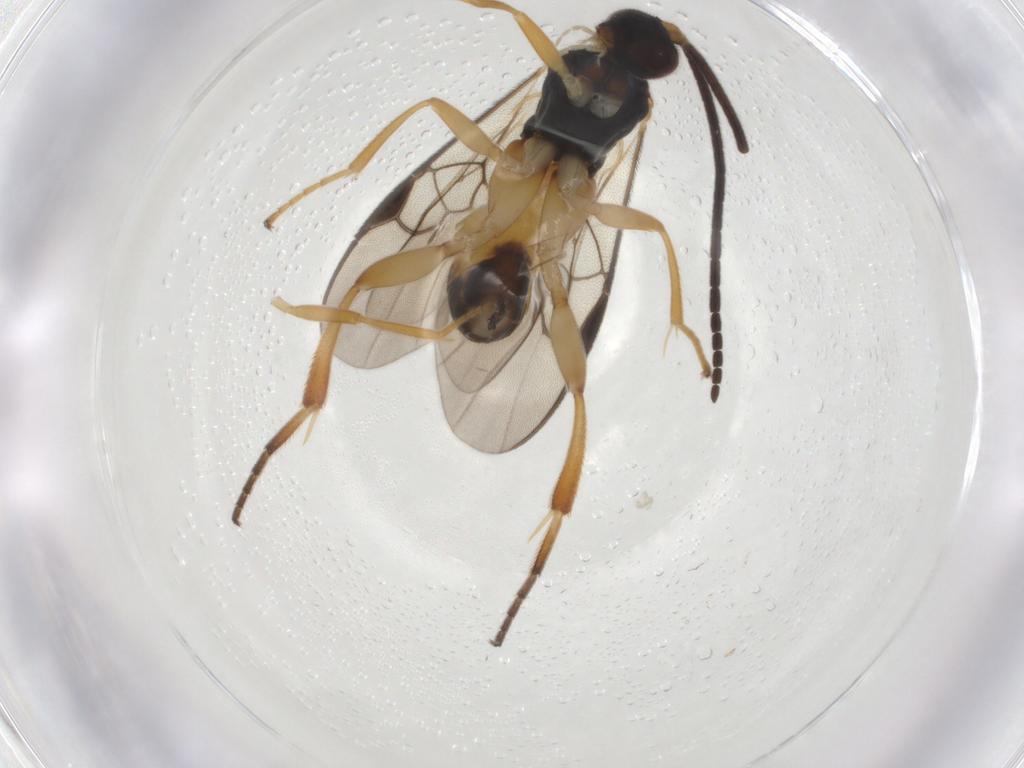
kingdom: Animalia
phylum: Arthropoda
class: Insecta
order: Hymenoptera
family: Braconidae
